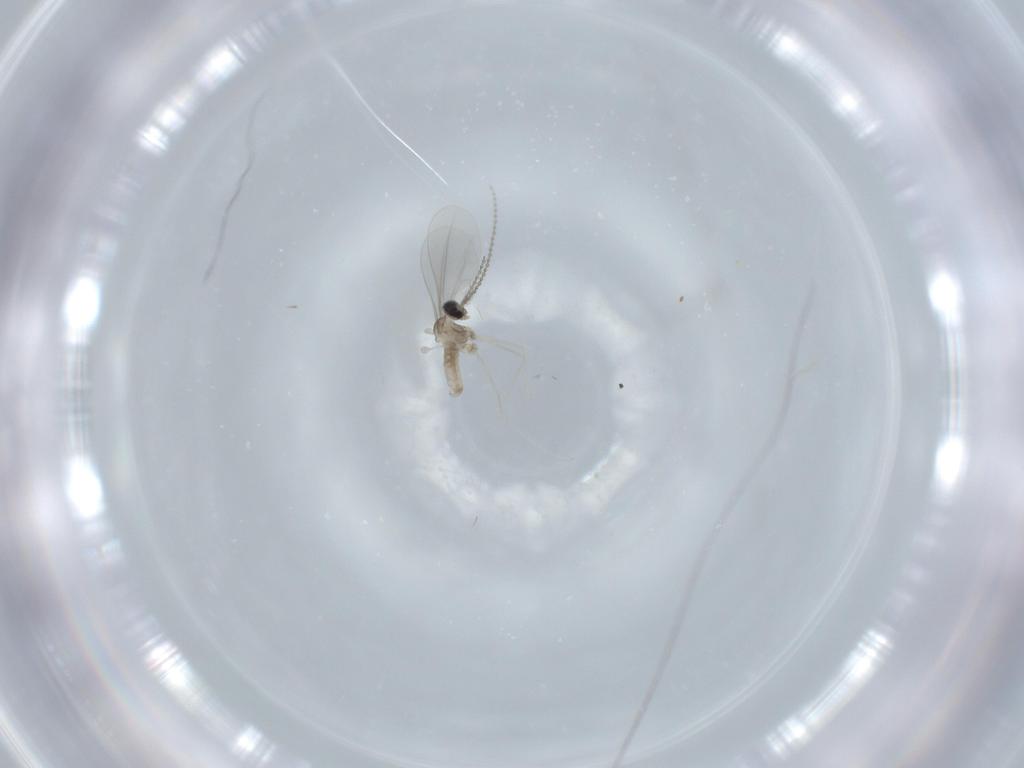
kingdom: Animalia
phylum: Arthropoda
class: Insecta
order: Diptera
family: Cecidomyiidae
